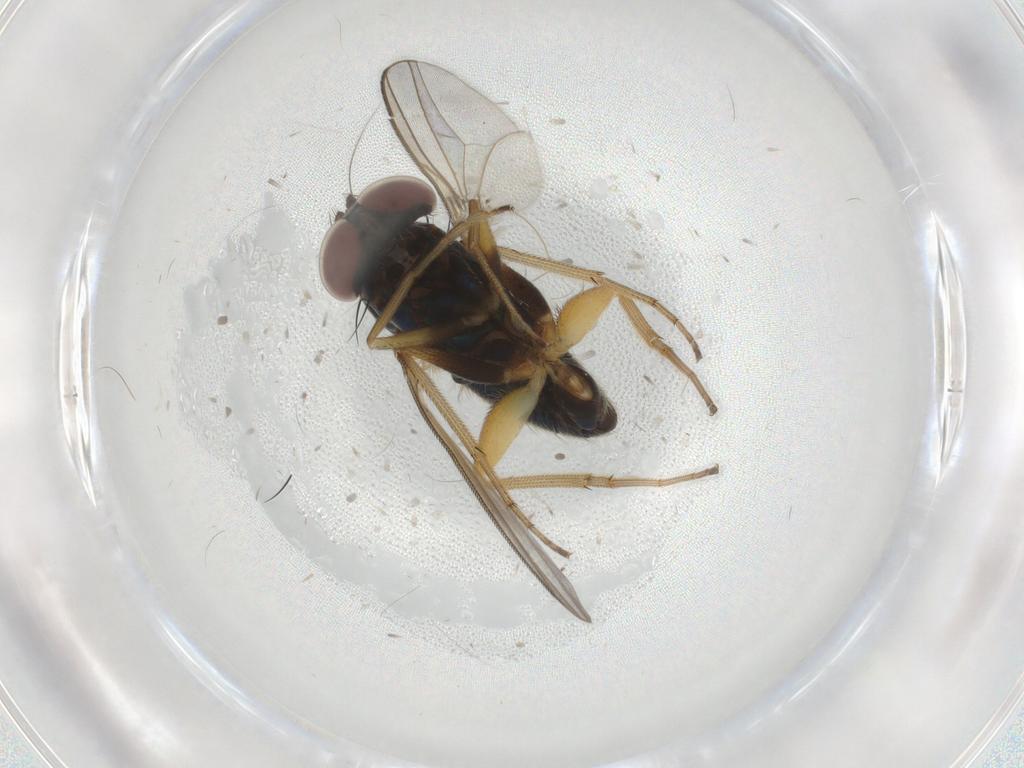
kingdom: Animalia
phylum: Arthropoda
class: Insecta
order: Diptera
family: Dolichopodidae
